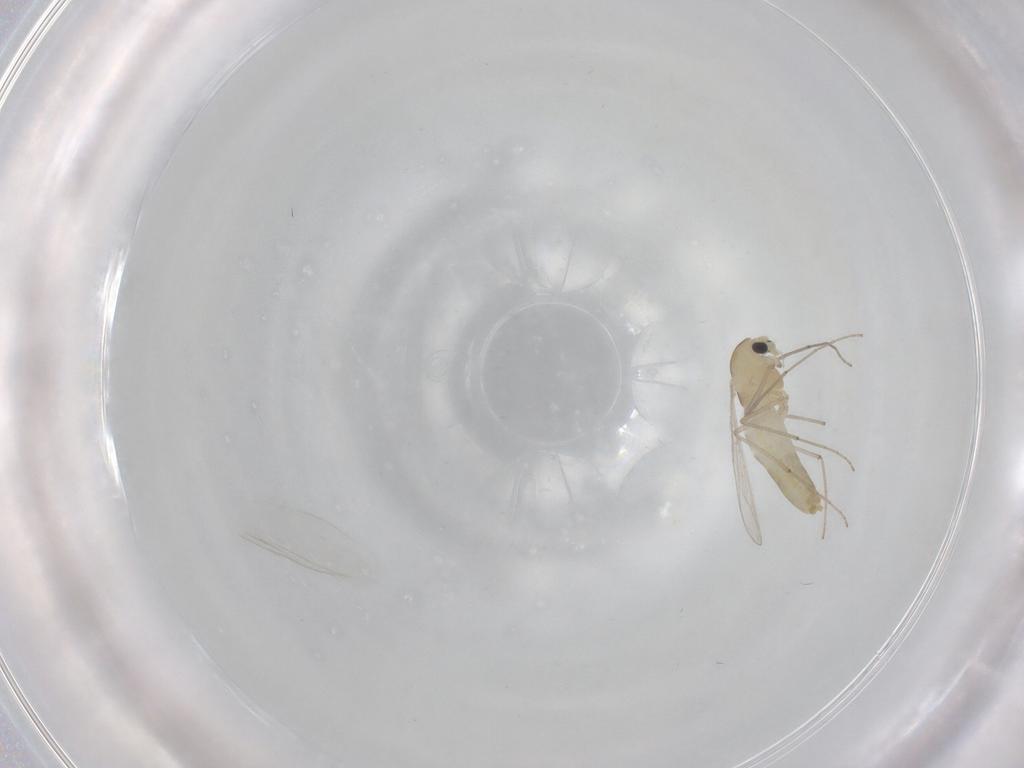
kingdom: Animalia
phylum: Arthropoda
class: Insecta
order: Diptera
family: Chironomidae
